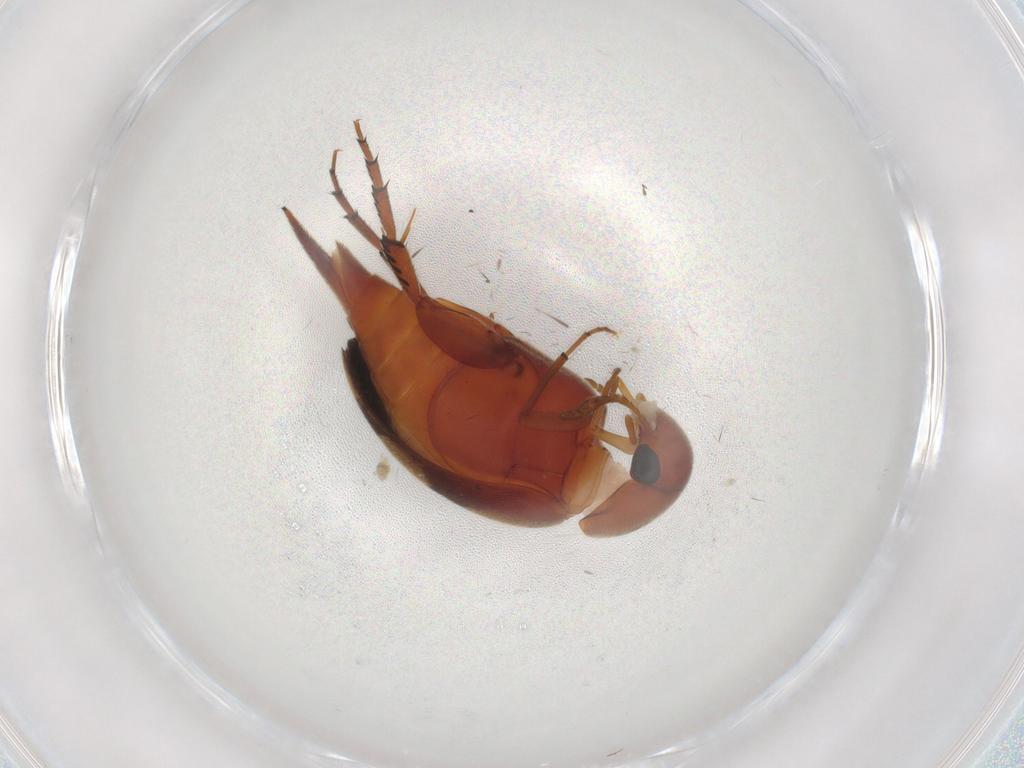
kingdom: Animalia
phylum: Arthropoda
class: Insecta
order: Coleoptera
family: Mordellidae
